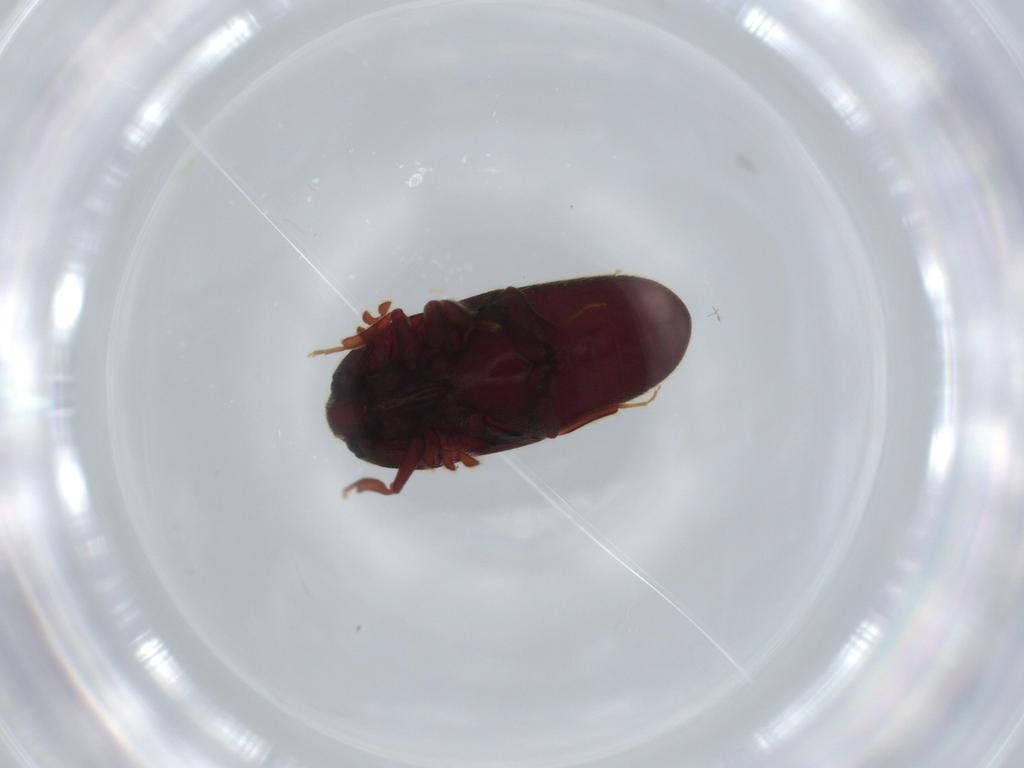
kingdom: Animalia
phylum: Arthropoda
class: Insecta
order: Coleoptera
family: Throscidae
